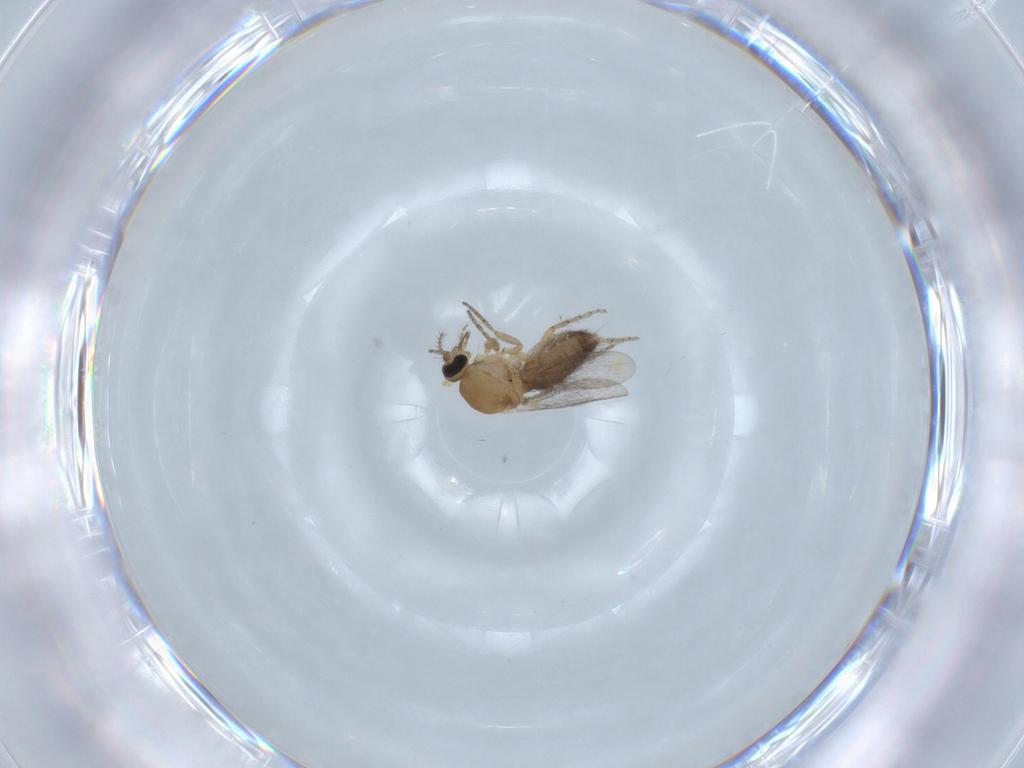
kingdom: Animalia
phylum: Arthropoda
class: Insecta
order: Diptera
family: Ceratopogonidae
